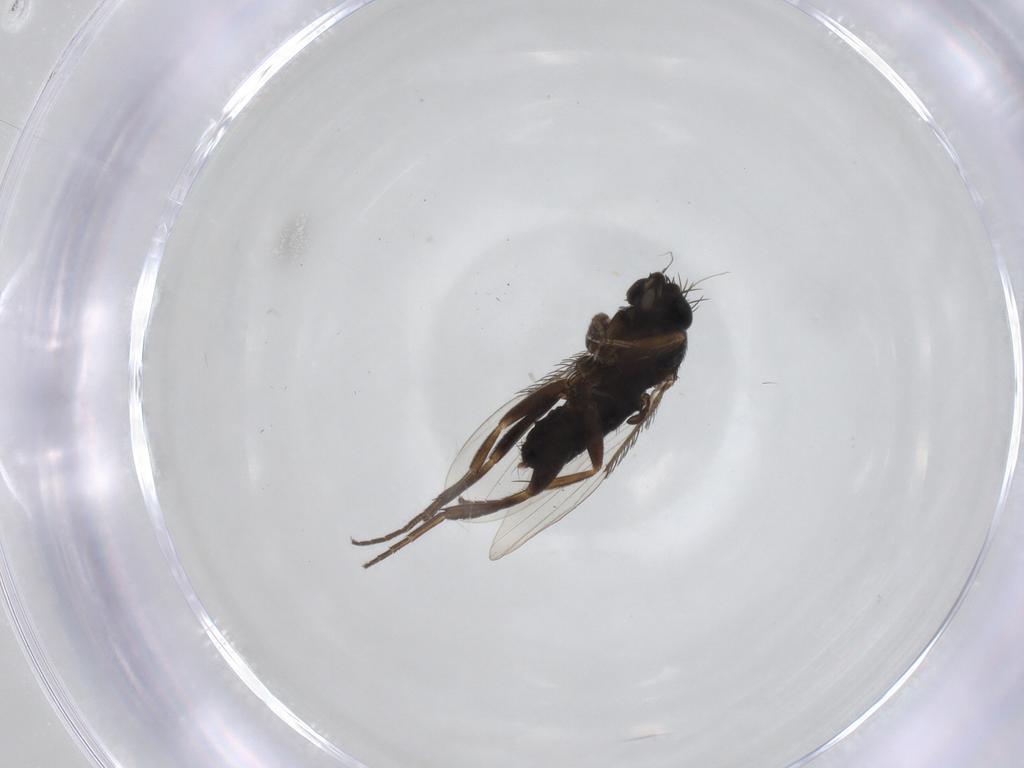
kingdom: Animalia
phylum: Arthropoda
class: Insecta
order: Diptera
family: Phoridae
